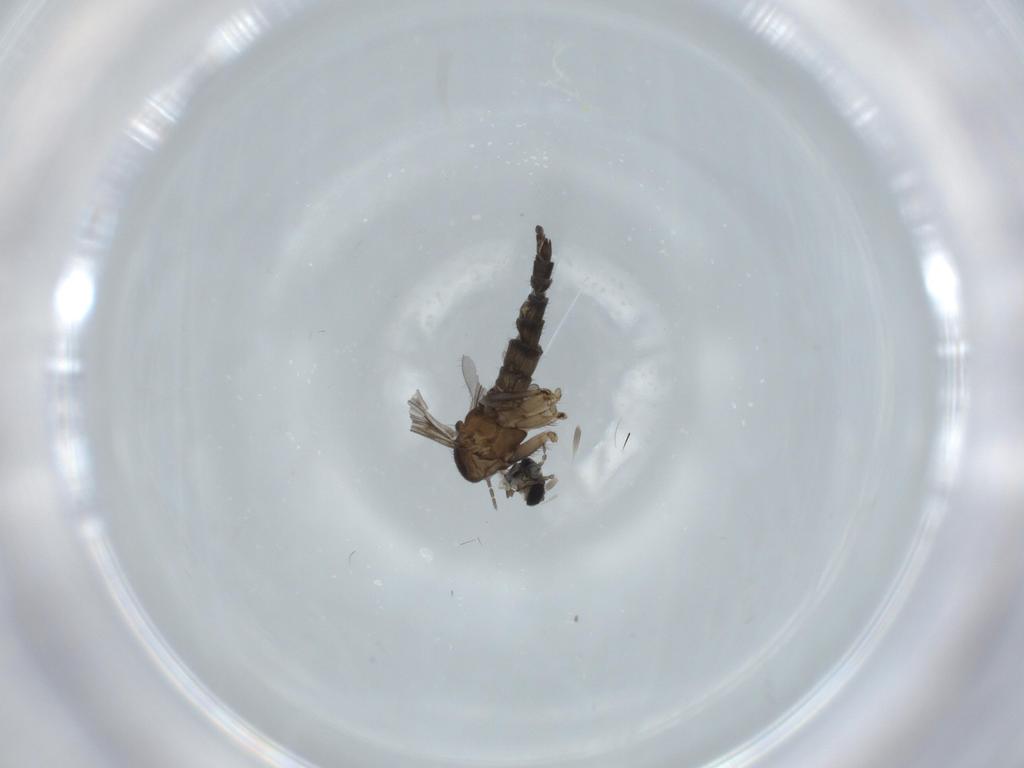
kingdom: Animalia
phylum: Arthropoda
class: Insecta
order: Diptera
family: Sciaridae
